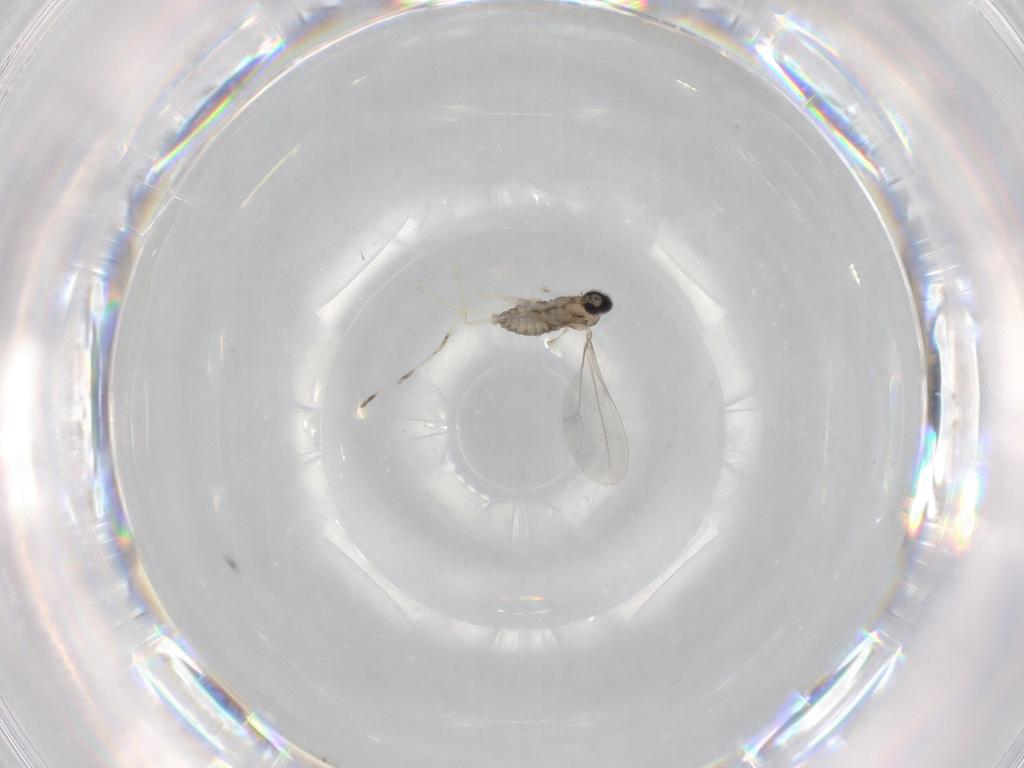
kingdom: Animalia
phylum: Arthropoda
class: Insecta
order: Diptera
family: Cecidomyiidae
